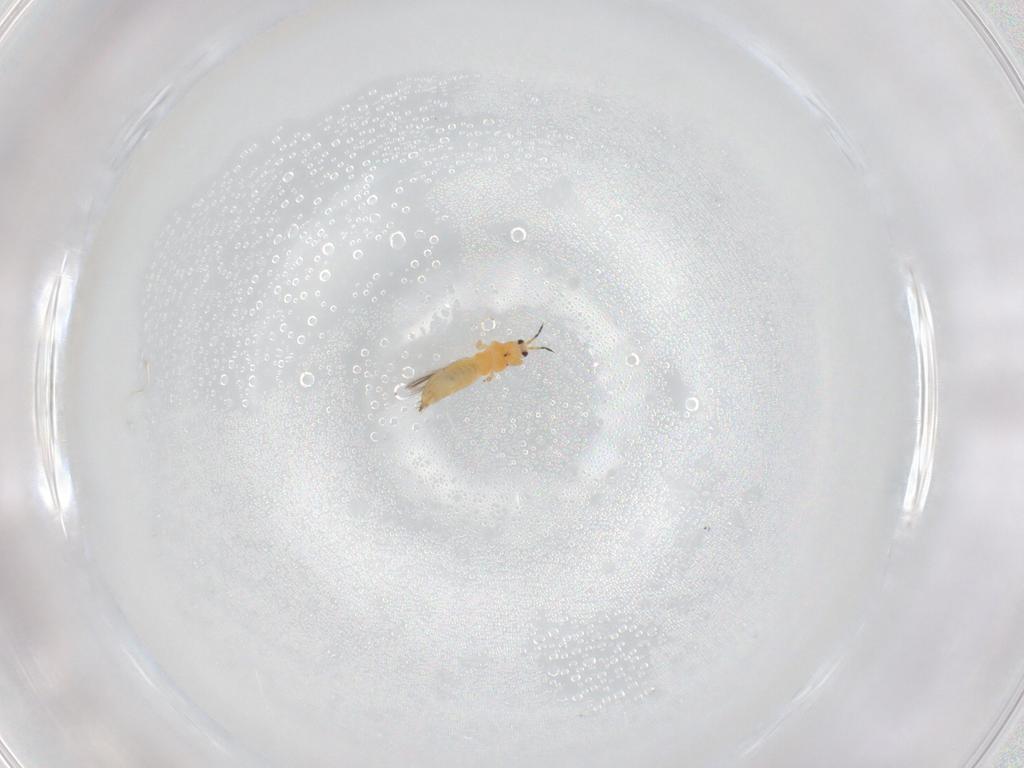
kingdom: Animalia
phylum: Arthropoda
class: Insecta
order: Thysanoptera
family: Thripidae
